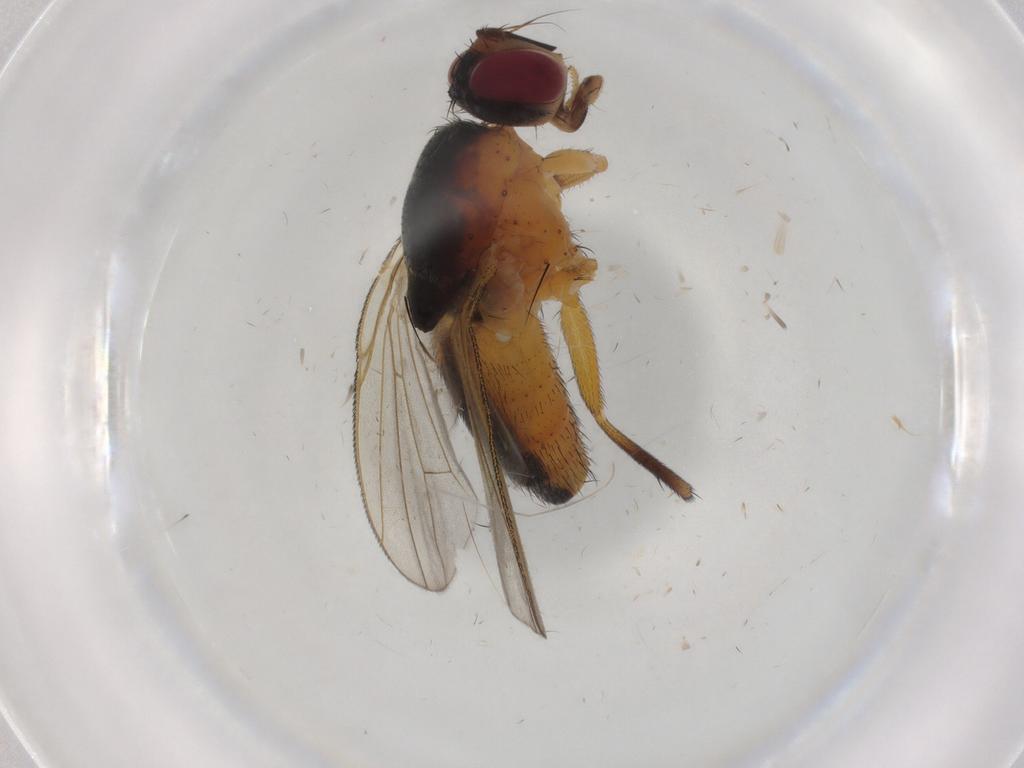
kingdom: Animalia
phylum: Arthropoda
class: Insecta
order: Diptera
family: Muscidae
